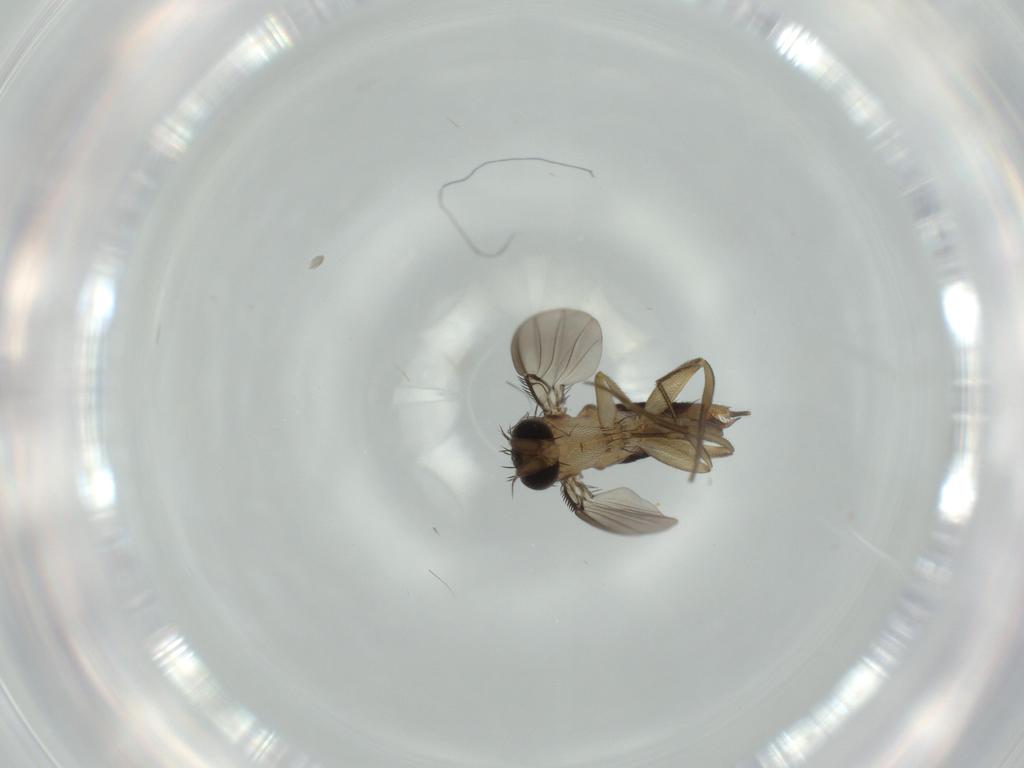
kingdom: Animalia
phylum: Arthropoda
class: Insecta
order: Diptera
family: Phoridae
